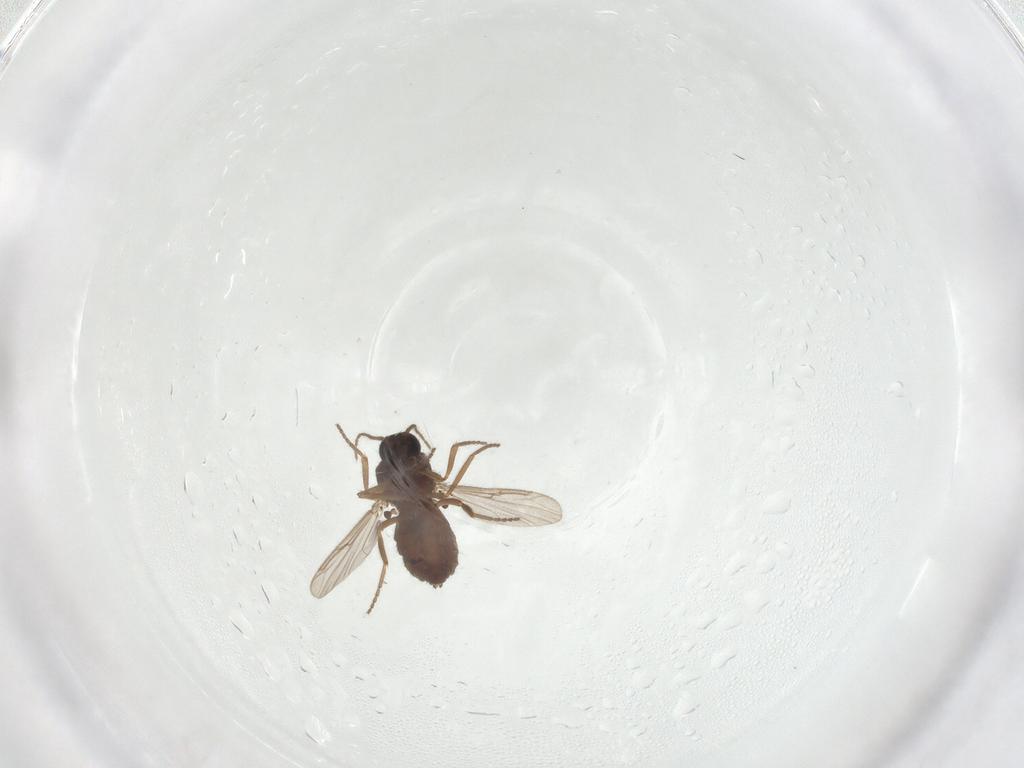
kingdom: Animalia
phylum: Arthropoda
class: Insecta
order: Diptera
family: Ceratopogonidae
